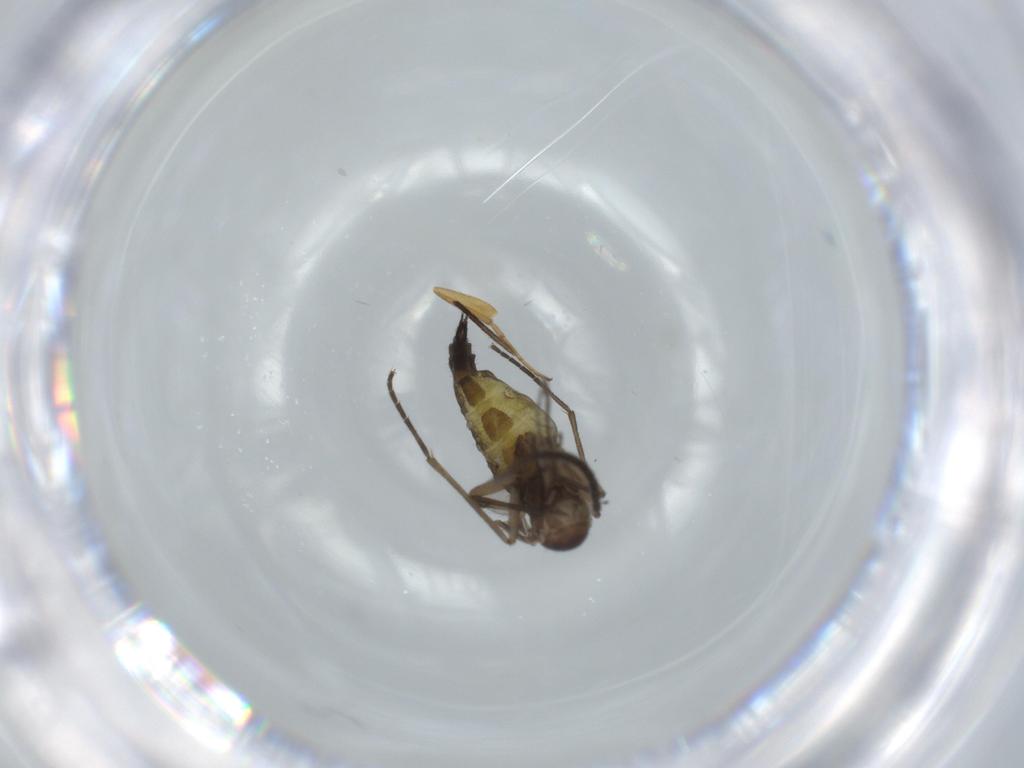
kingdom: Animalia
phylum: Arthropoda
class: Insecta
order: Diptera
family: Sciaridae
